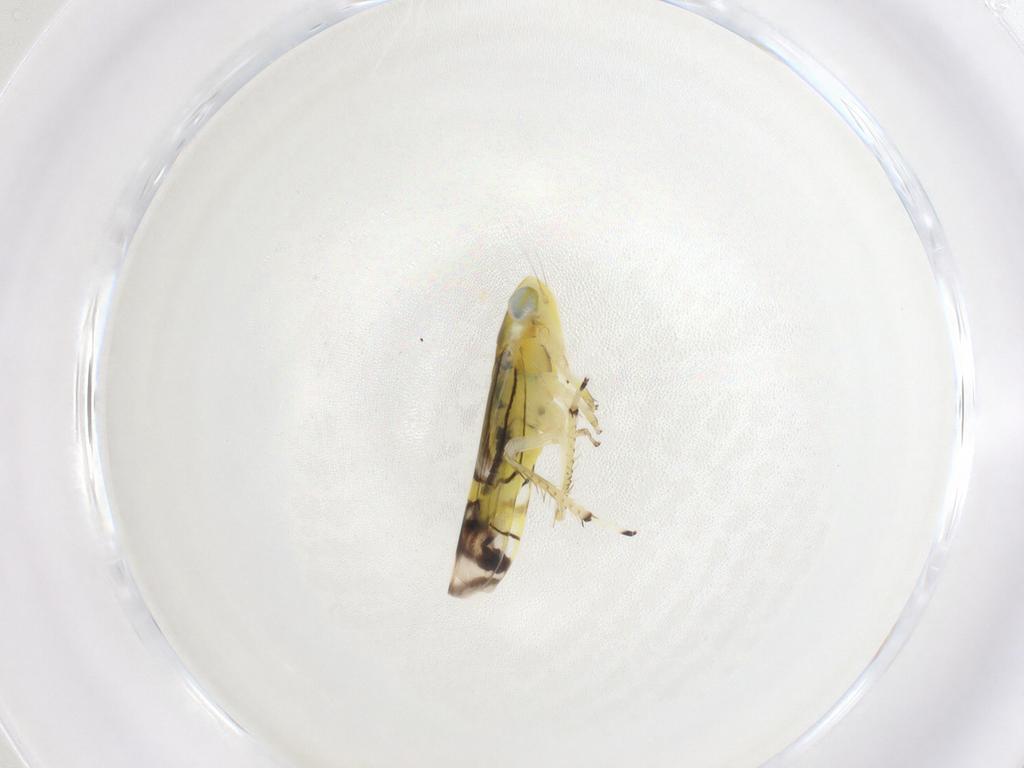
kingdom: Animalia
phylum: Arthropoda
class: Insecta
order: Hemiptera
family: Cicadellidae
